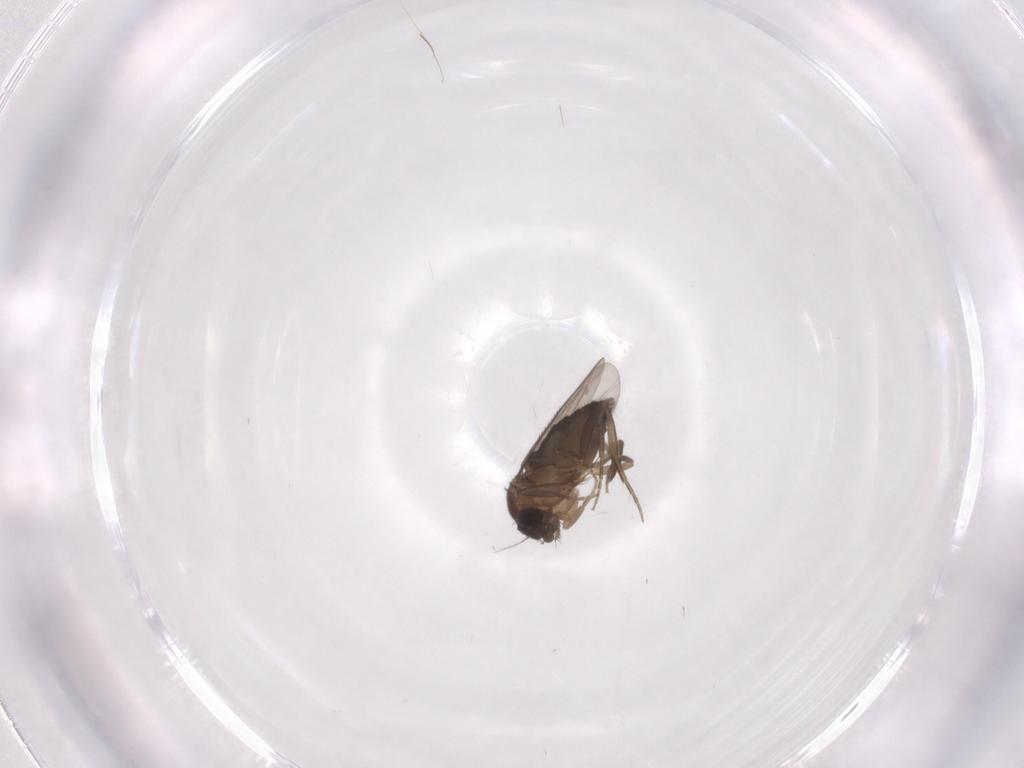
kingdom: Animalia
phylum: Arthropoda
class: Insecta
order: Diptera
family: Phoridae
